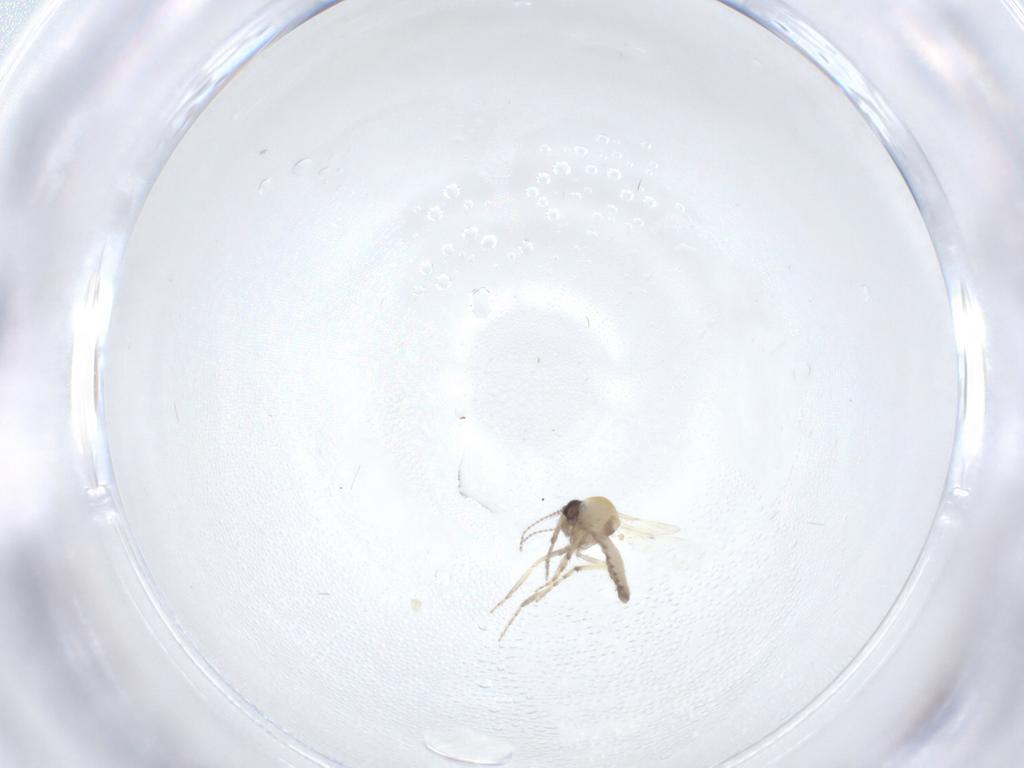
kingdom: Animalia
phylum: Arthropoda
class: Insecta
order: Diptera
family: Ceratopogonidae
